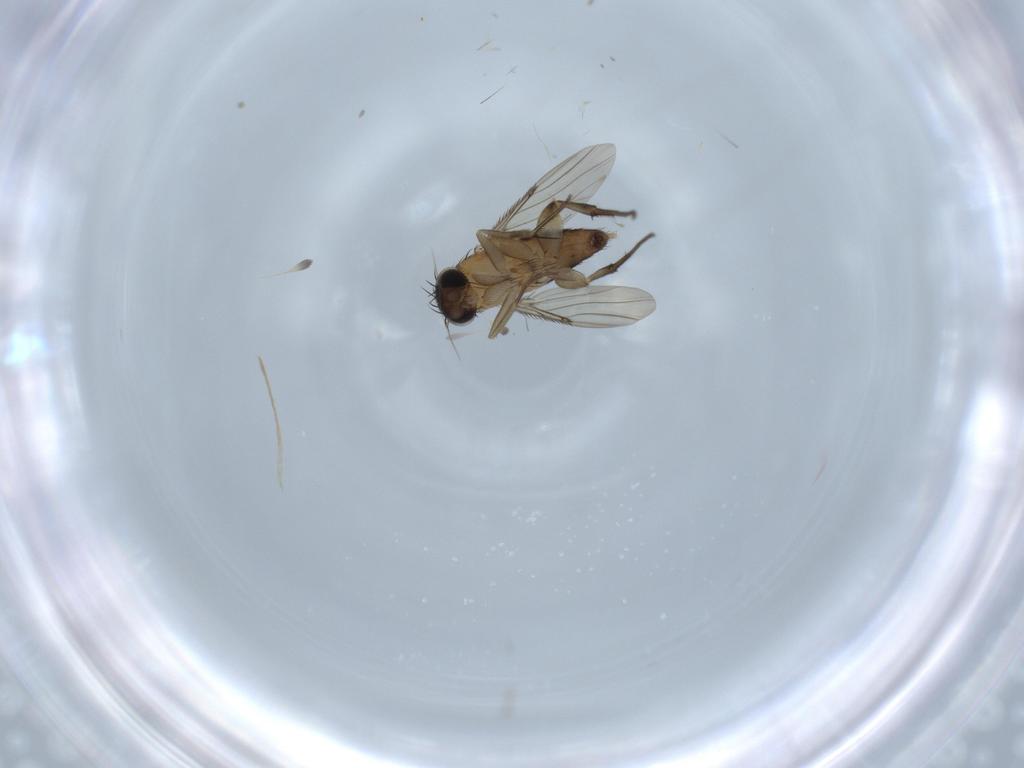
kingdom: Animalia
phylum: Arthropoda
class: Insecta
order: Diptera
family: Phoridae
